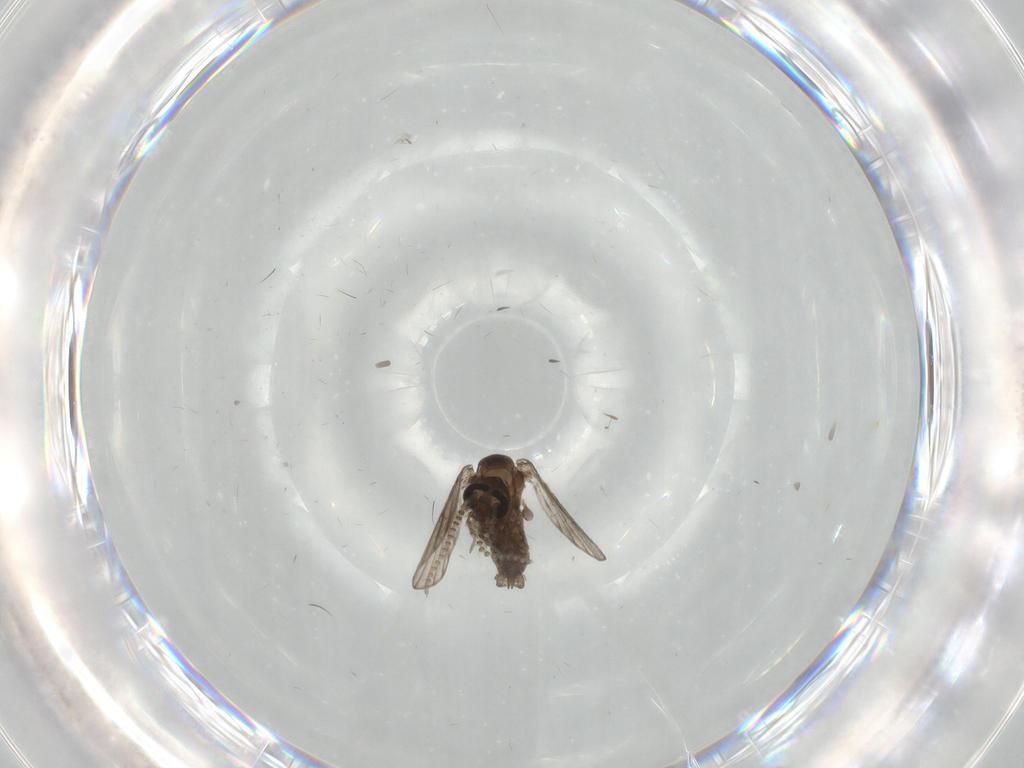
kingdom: Animalia
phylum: Arthropoda
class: Insecta
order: Diptera
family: Psychodidae
